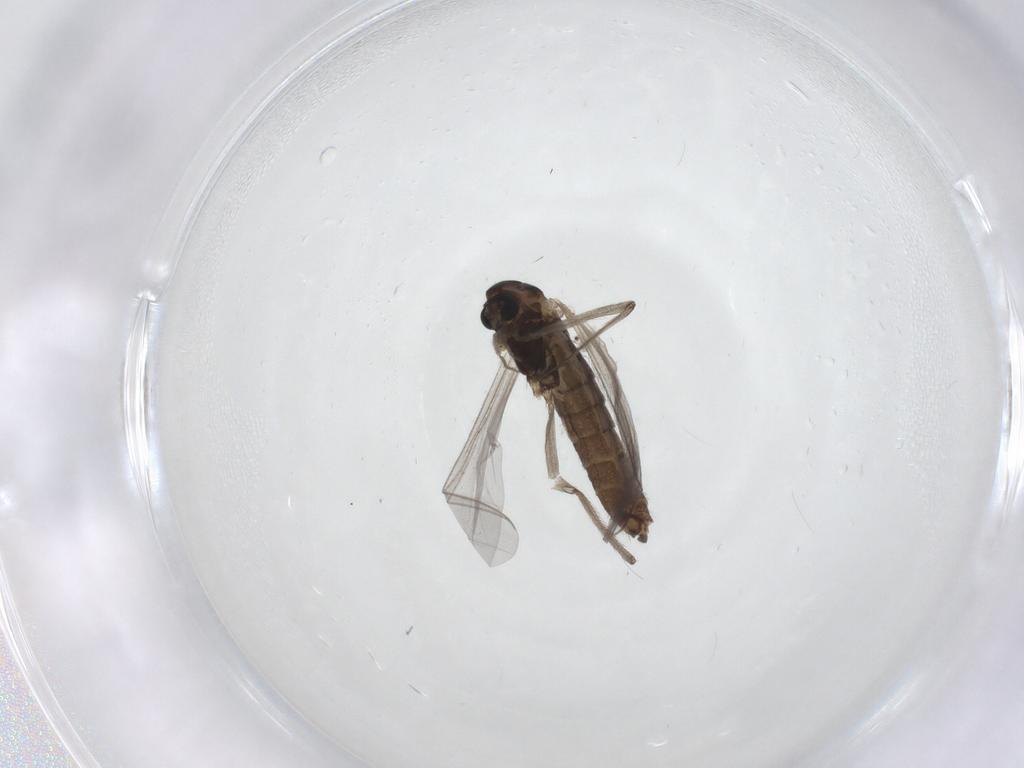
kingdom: Animalia
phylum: Arthropoda
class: Insecta
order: Diptera
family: Chironomidae
